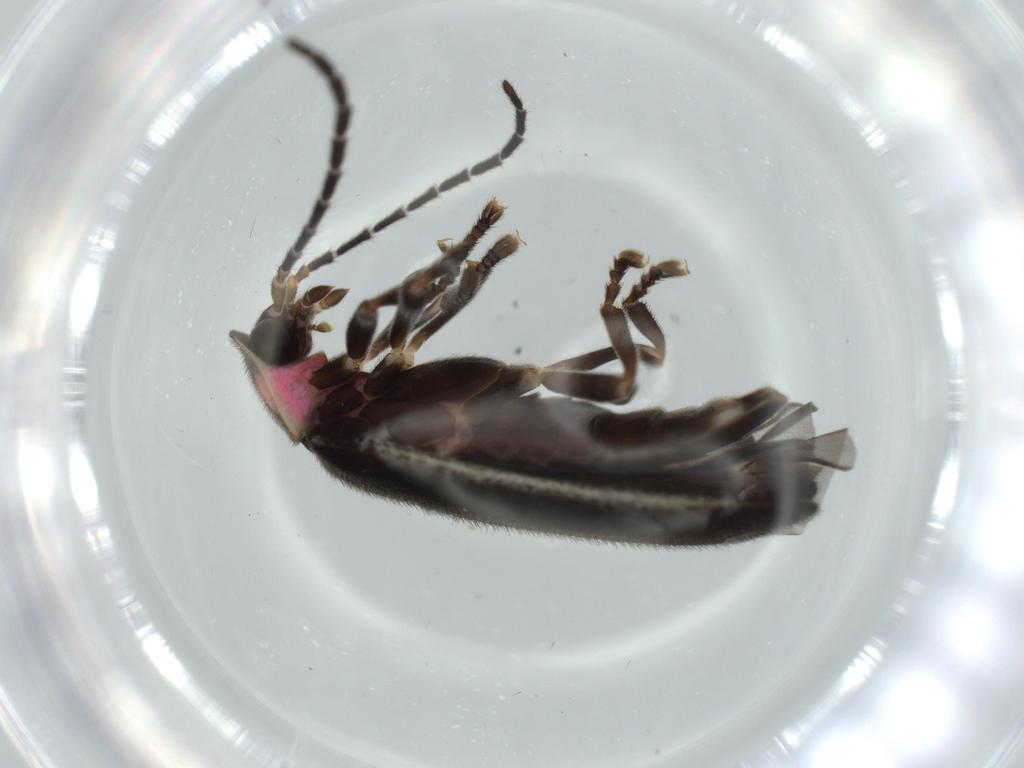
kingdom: Animalia
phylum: Arthropoda
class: Insecta
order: Coleoptera
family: Lampyridae
